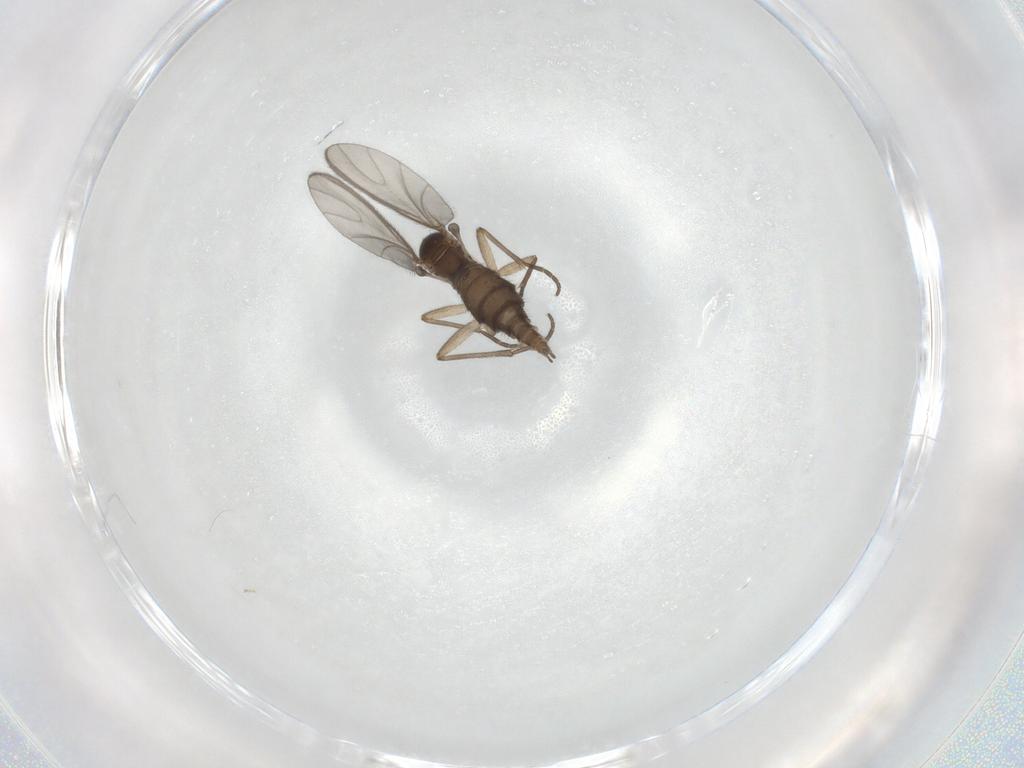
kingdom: Animalia
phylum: Arthropoda
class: Insecta
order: Diptera
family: Sciaridae
